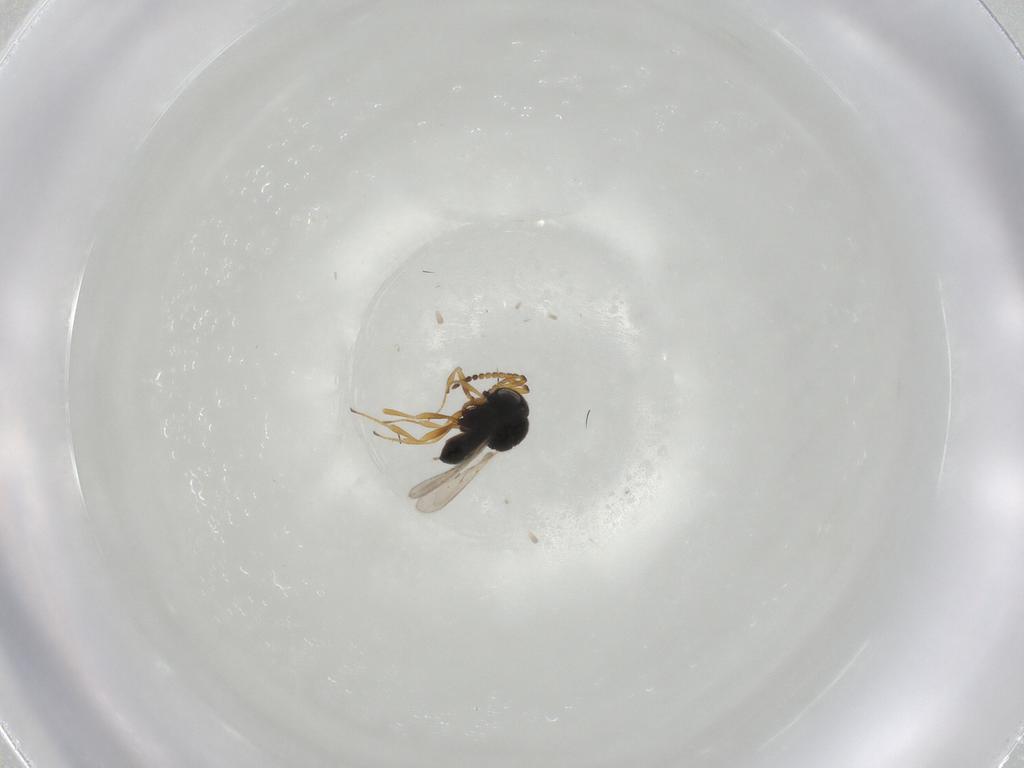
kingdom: Animalia
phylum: Arthropoda
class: Insecta
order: Hymenoptera
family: Scelionidae
